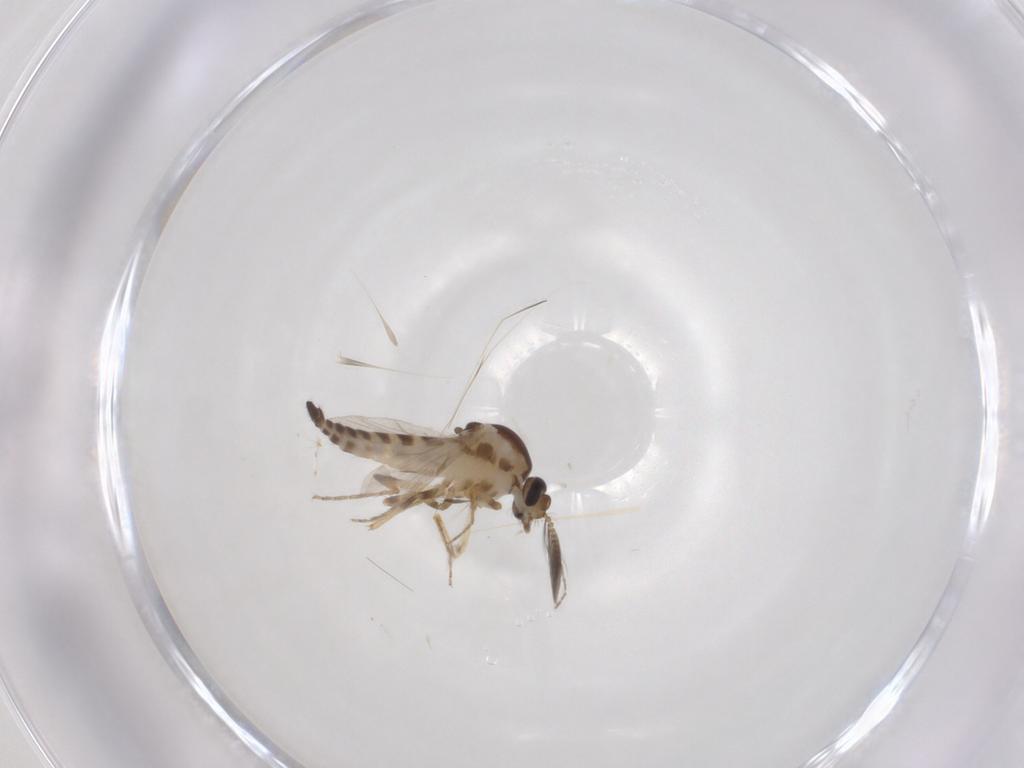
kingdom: Animalia
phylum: Arthropoda
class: Insecta
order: Diptera
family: Ceratopogonidae
